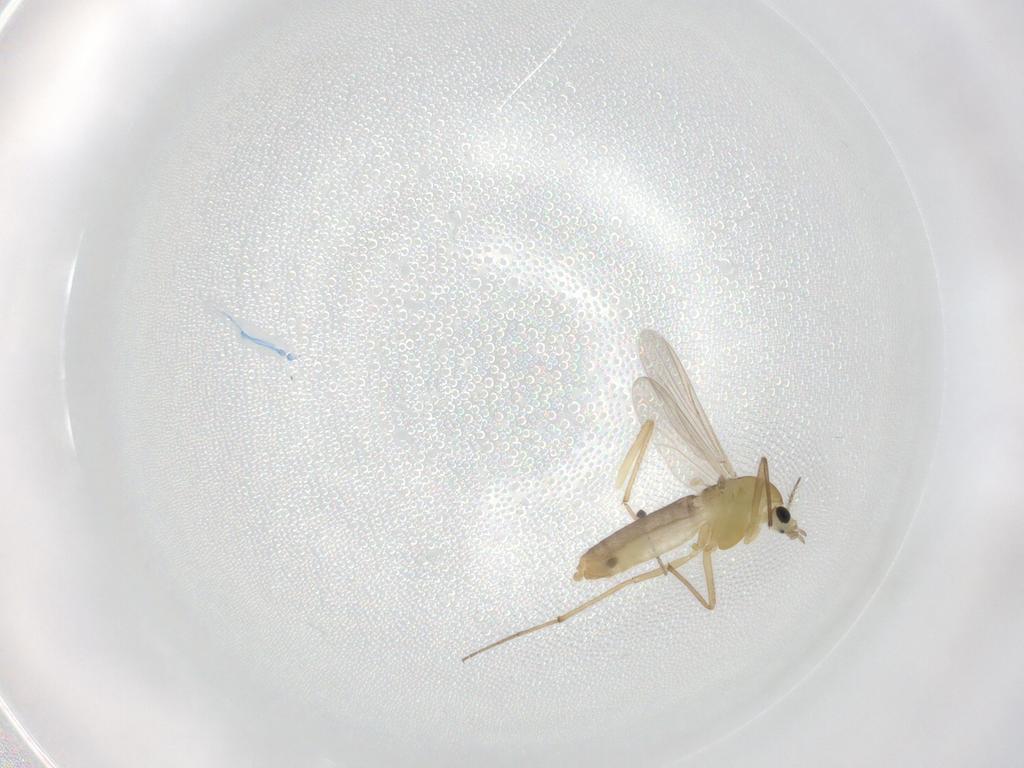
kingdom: Animalia
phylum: Arthropoda
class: Insecta
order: Diptera
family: Chironomidae
